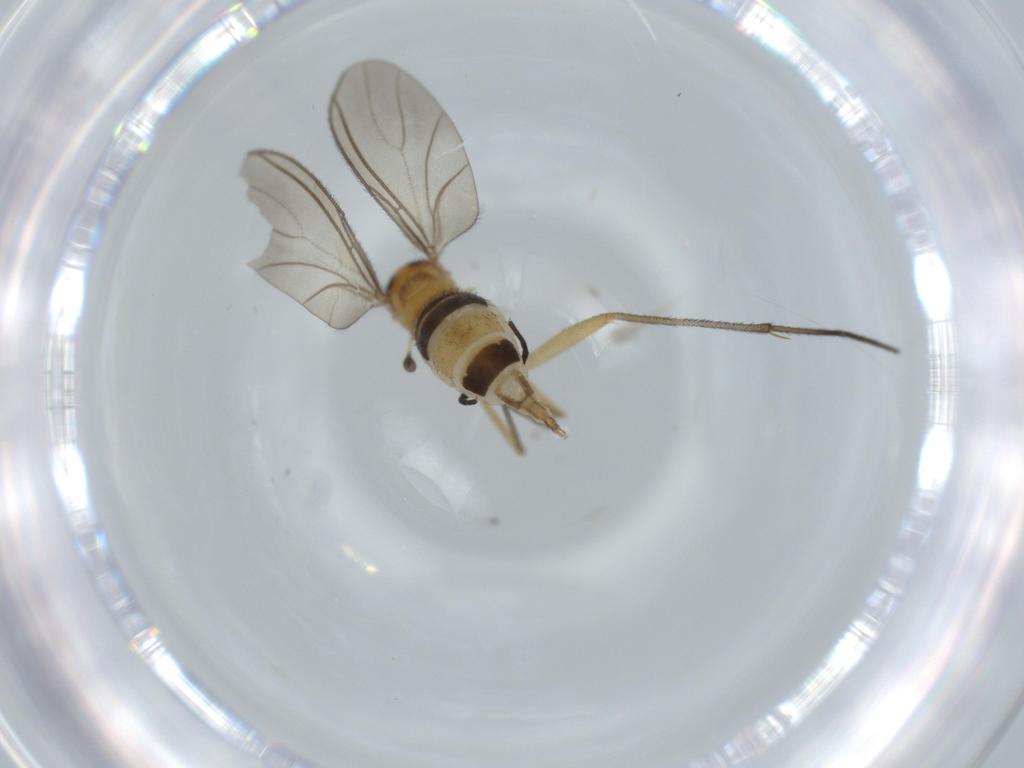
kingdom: Animalia
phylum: Arthropoda
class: Insecta
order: Diptera
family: Sciaridae
